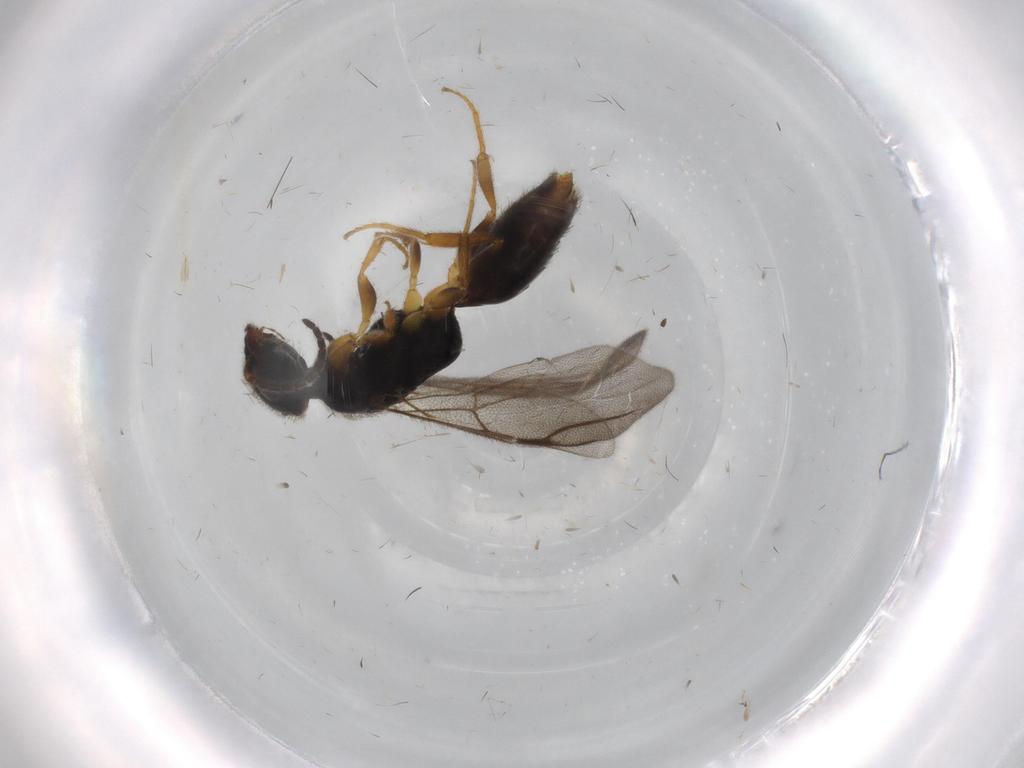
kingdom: Animalia
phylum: Arthropoda
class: Insecta
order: Hymenoptera
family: Bethylidae
